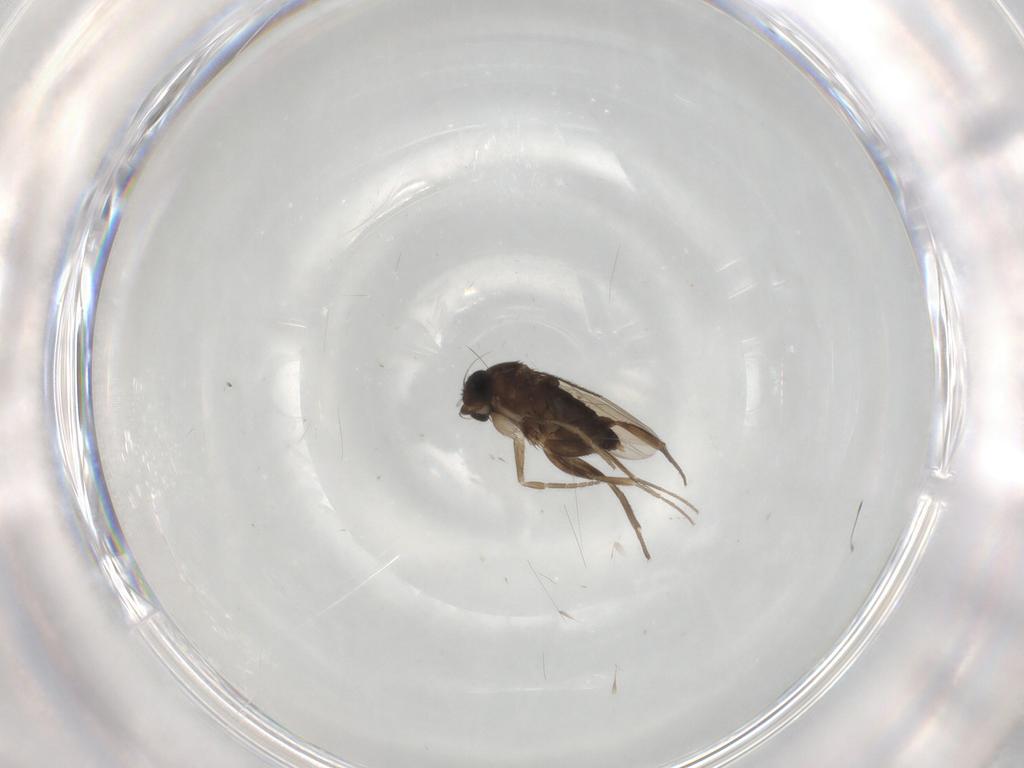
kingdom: Animalia
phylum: Arthropoda
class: Insecta
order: Diptera
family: Phoridae
